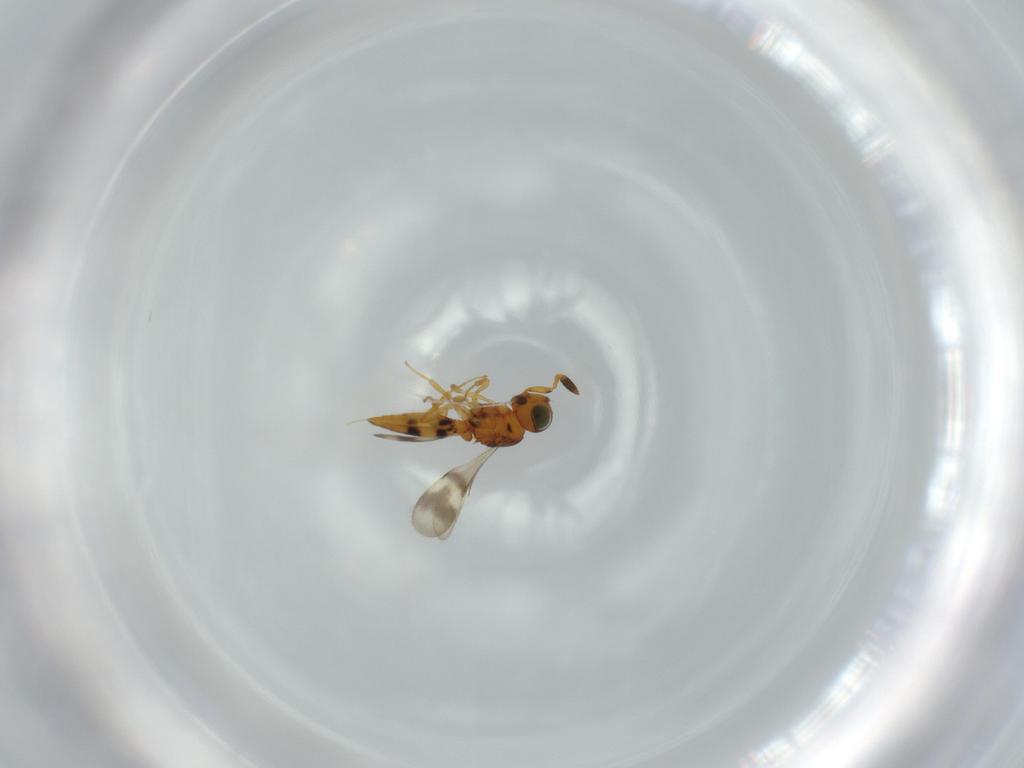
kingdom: Animalia
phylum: Arthropoda
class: Insecta
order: Hymenoptera
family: Scelionidae
